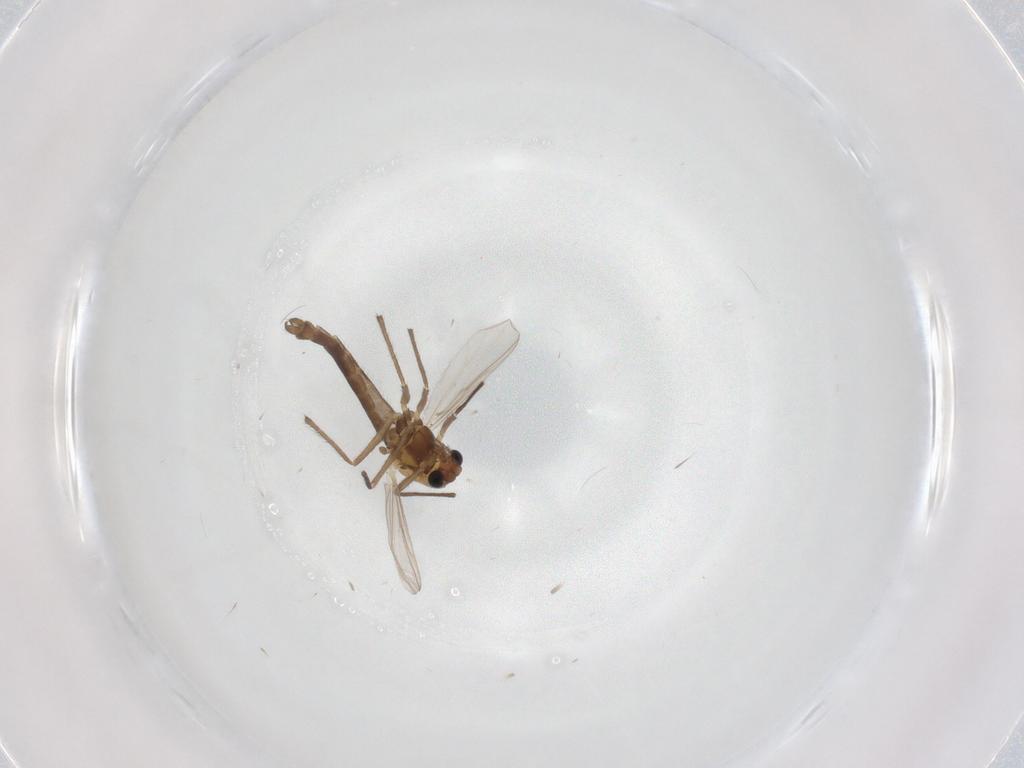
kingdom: Animalia
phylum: Arthropoda
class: Insecta
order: Diptera
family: Chironomidae
